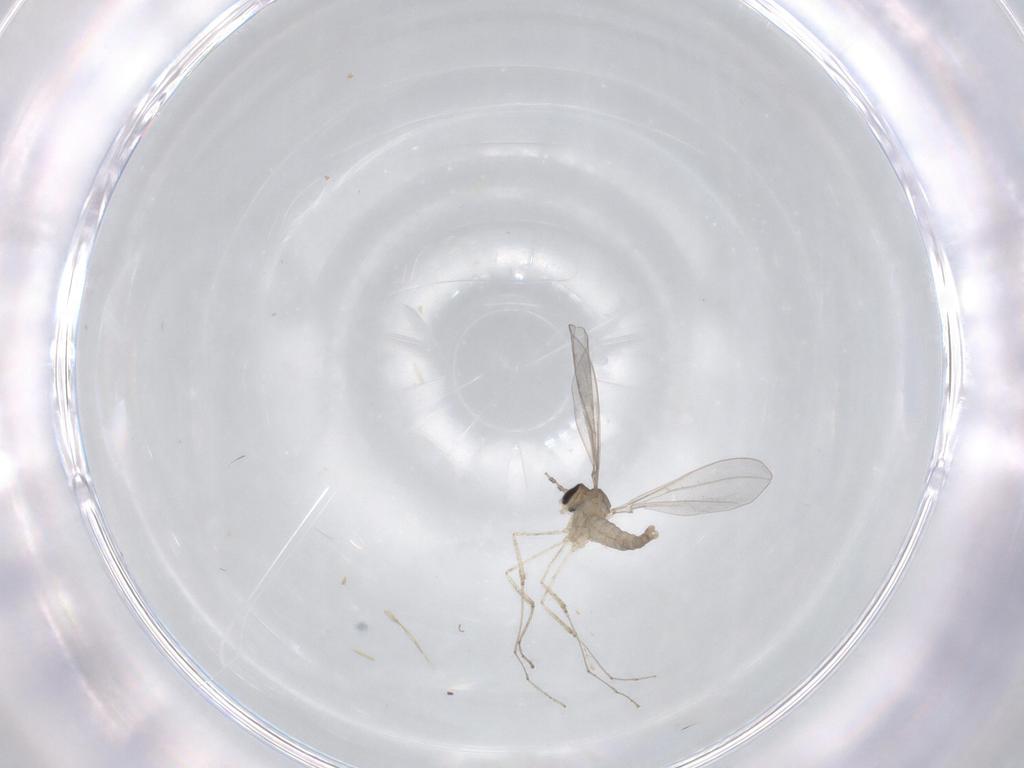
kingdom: Animalia
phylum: Arthropoda
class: Insecta
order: Diptera
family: Cecidomyiidae
